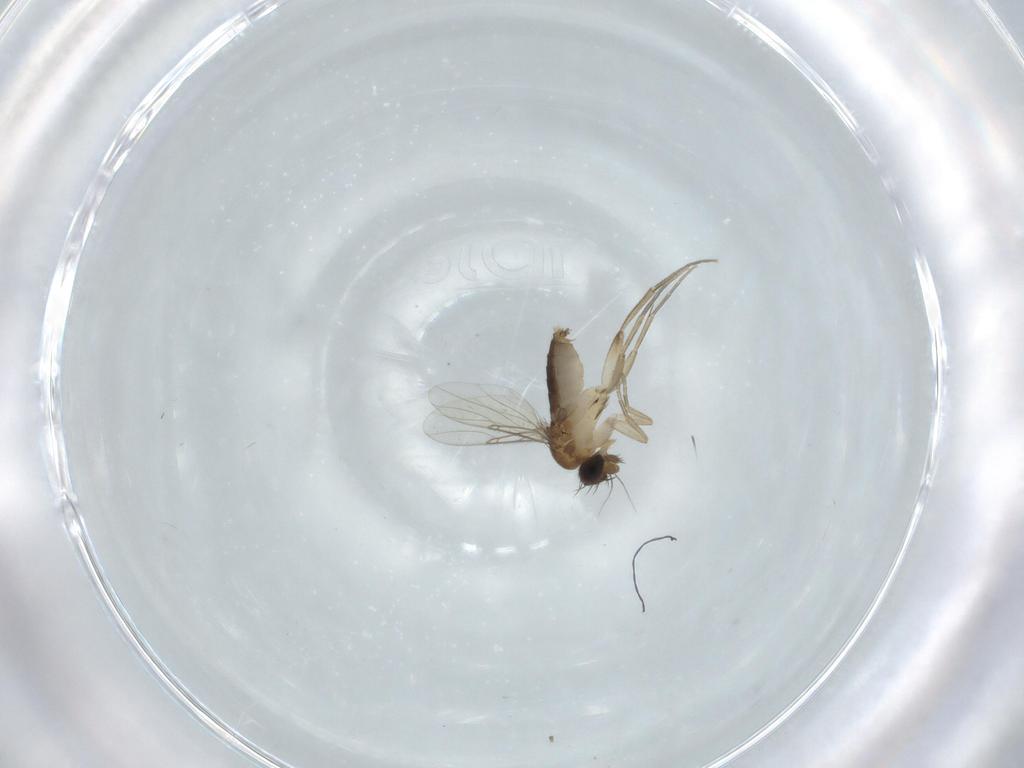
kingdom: Animalia
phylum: Arthropoda
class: Insecta
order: Diptera
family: Phoridae
